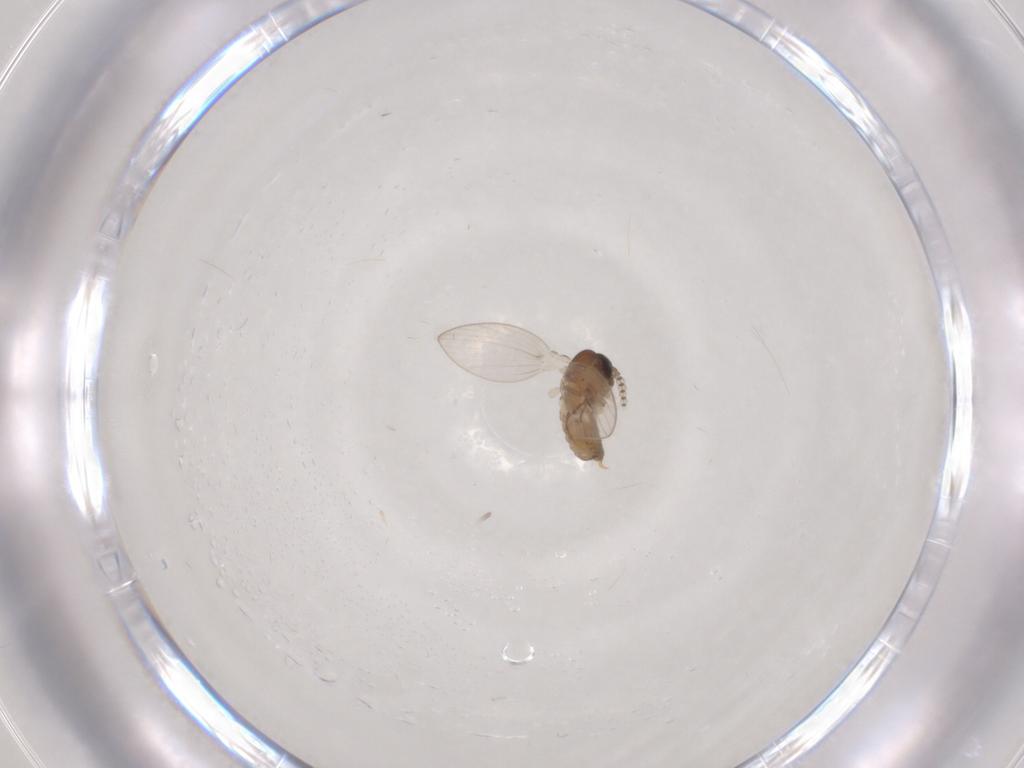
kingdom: Animalia
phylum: Arthropoda
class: Insecta
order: Diptera
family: Psychodidae
